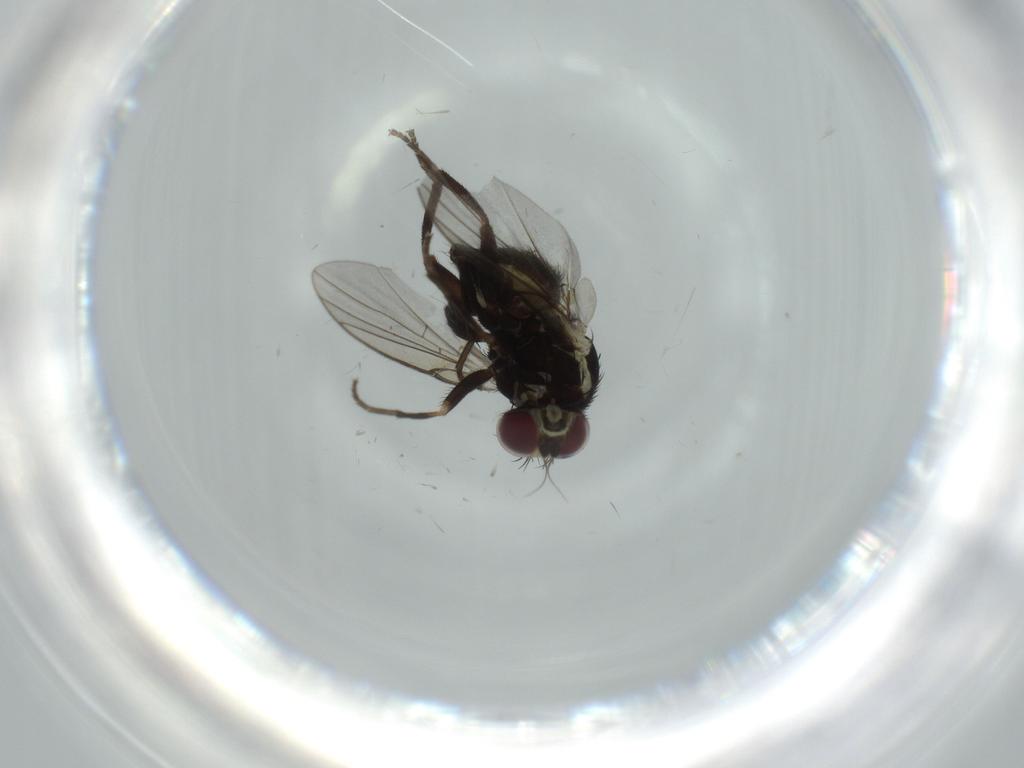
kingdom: Animalia
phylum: Arthropoda
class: Insecta
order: Diptera
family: Agromyzidae
